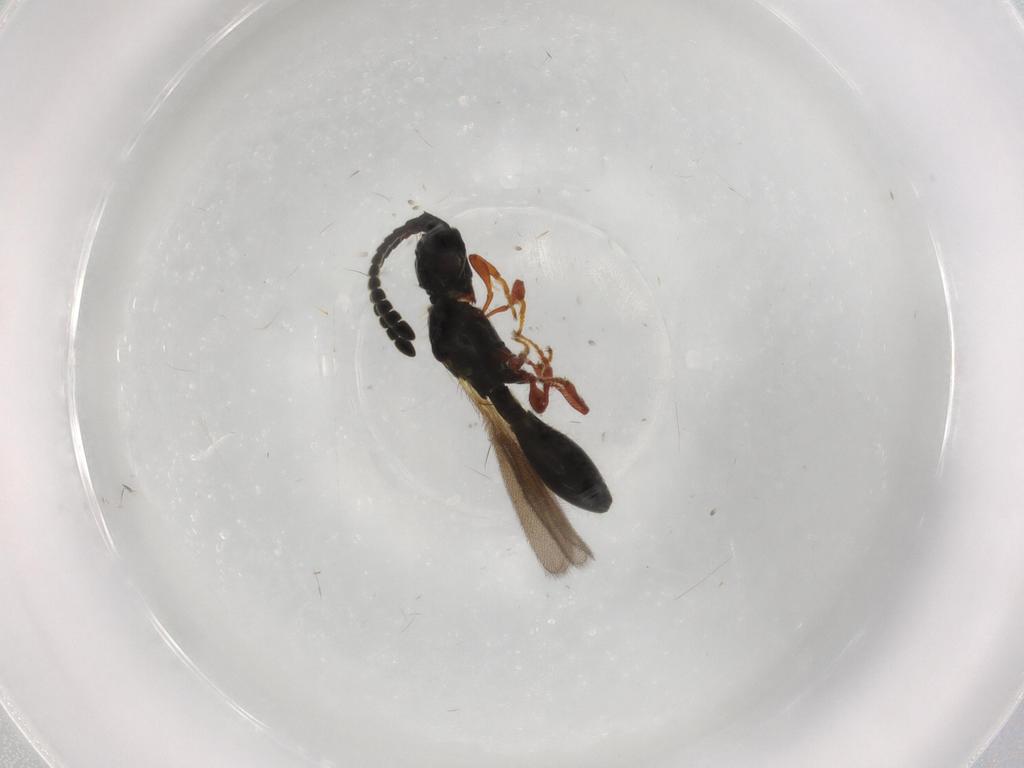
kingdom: Animalia
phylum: Arthropoda
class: Insecta
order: Hymenoptera
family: Diapriidae
